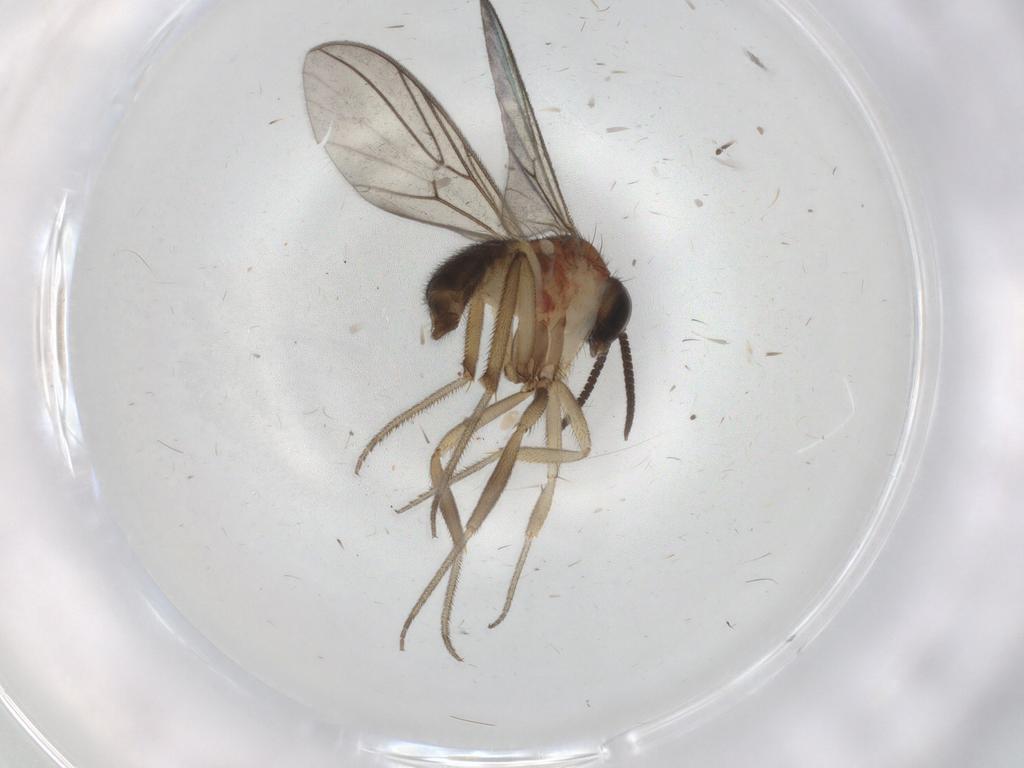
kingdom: Animalia
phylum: Arthropoda
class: Insecta
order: Diptera
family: Anisopodidae
